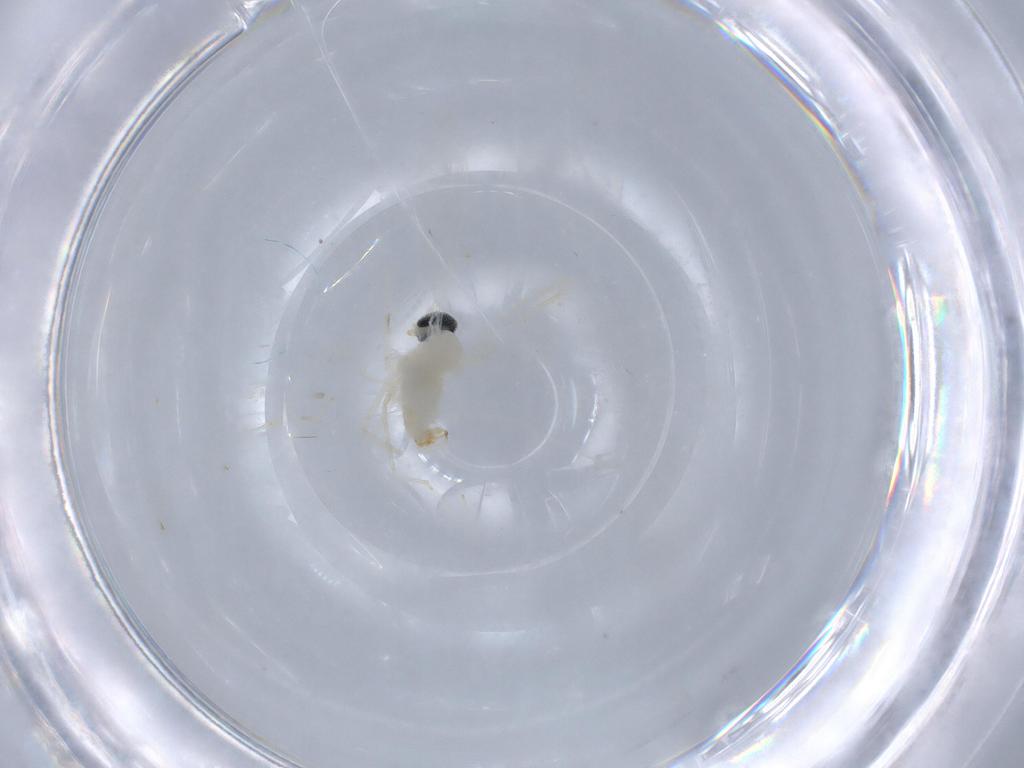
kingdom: Animalia
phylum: Arthropoda
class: Insecta
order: Diptera
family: Cecidomyiidae
